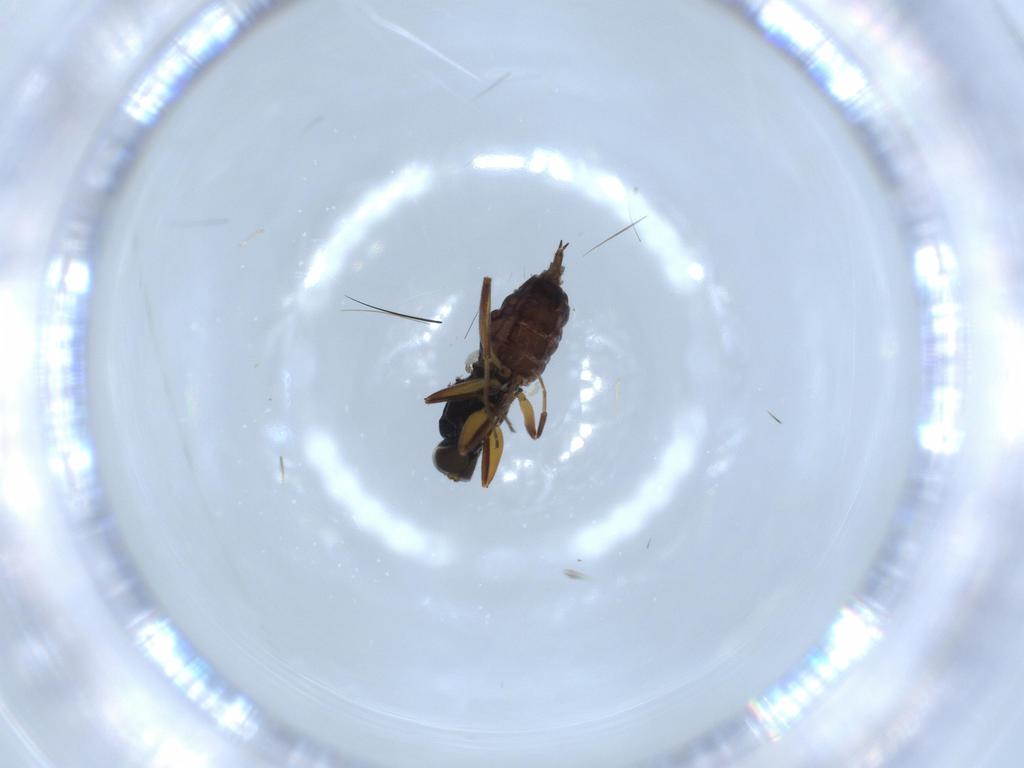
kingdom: Animalia
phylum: Arthropoda
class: Insecta
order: Diptera
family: Hybotidae
